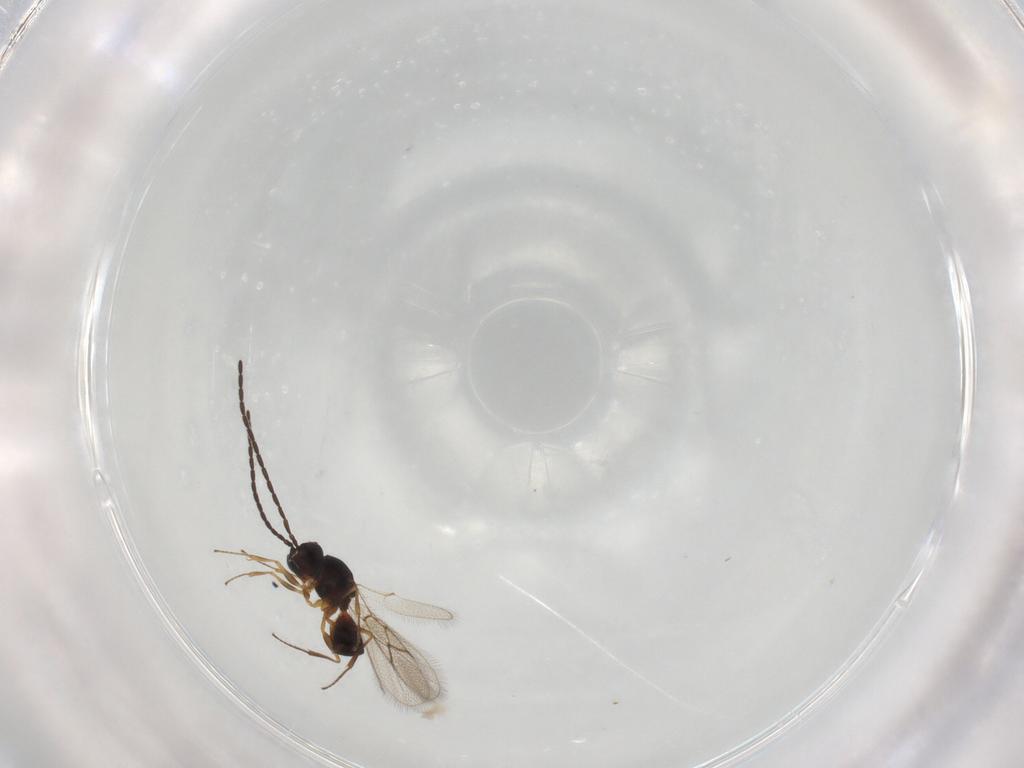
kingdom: Animalia
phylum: Arthropoda
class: Insecta
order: Hymenoptera
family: Figitidae
